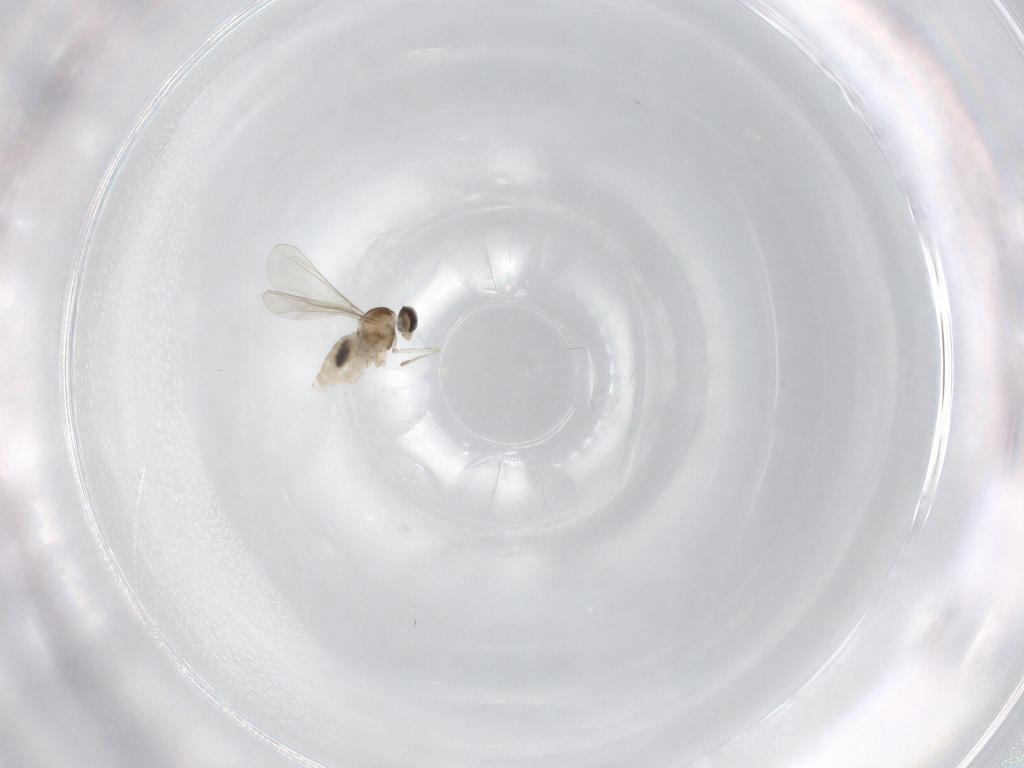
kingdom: Animalia
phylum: Arthropoda
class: Insecta
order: Diptera
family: Cecidomyiidae
